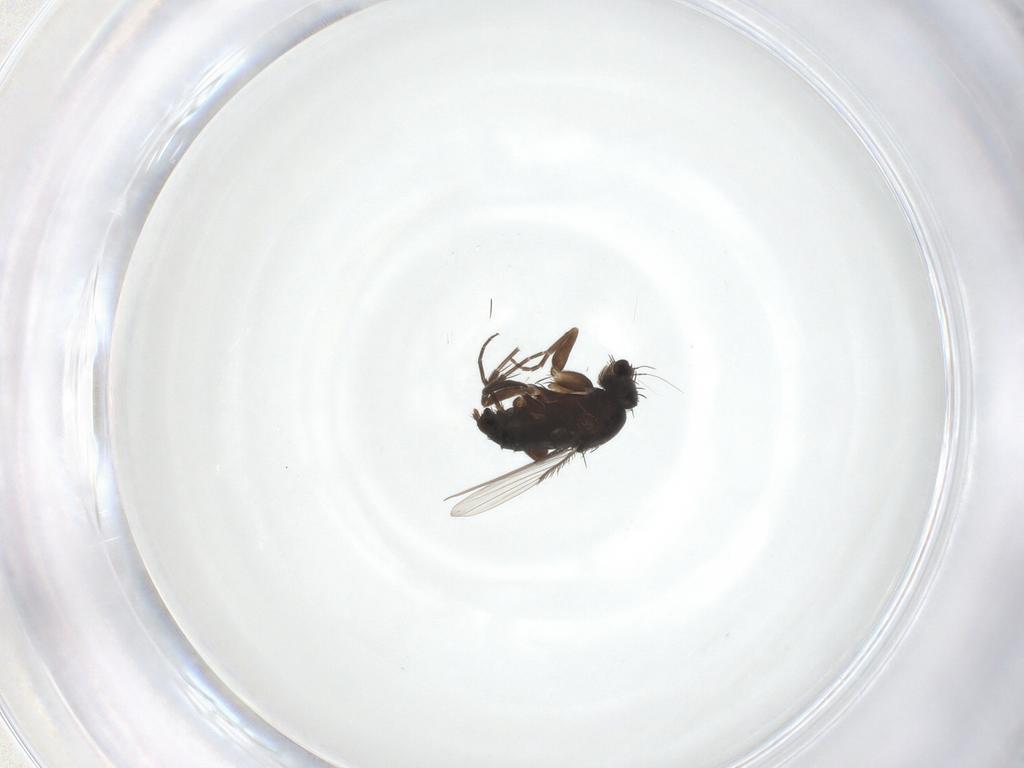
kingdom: Animalia
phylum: Arthropoda
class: Insecta
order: Diptera
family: Phoridae
